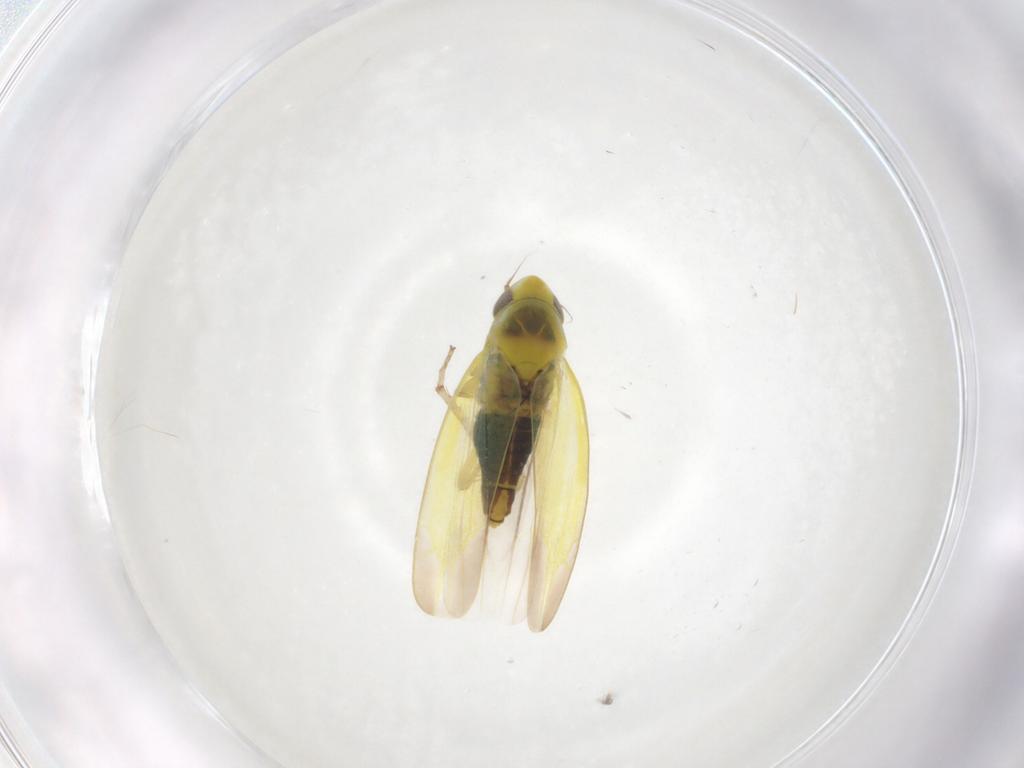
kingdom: Animalia
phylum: Arthropoda
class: Insecta
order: Hemiptera
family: Cicadellidae
